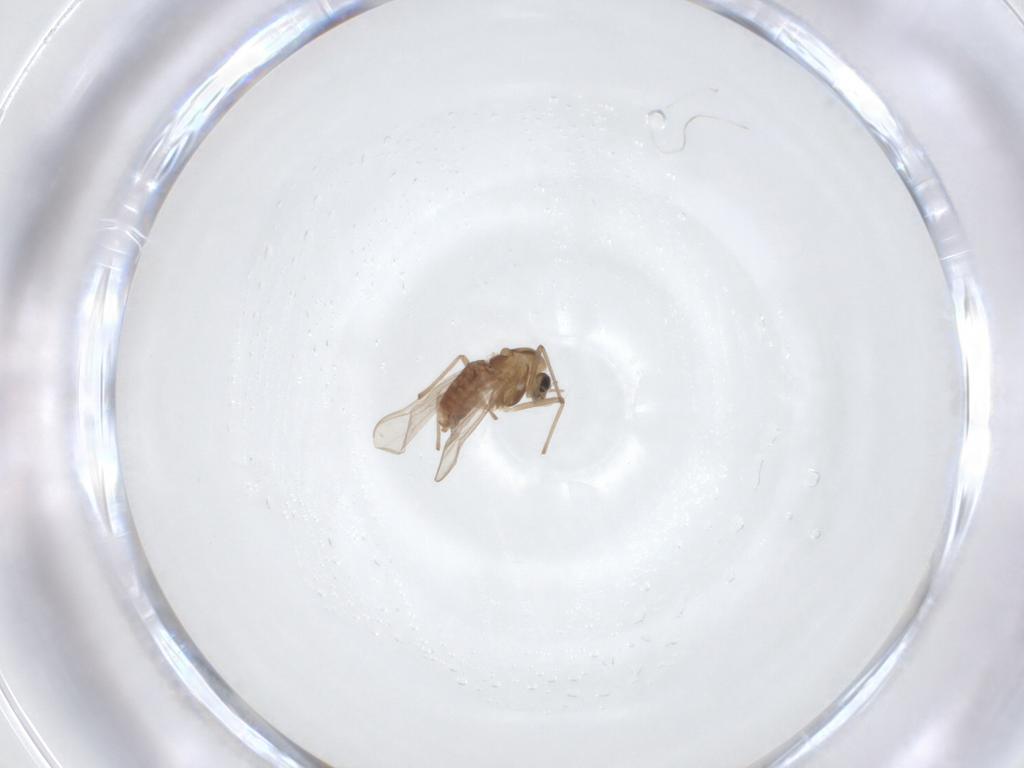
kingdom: Animalia
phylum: Arthropoda
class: Insecta
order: Diptera
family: Chironomidae
